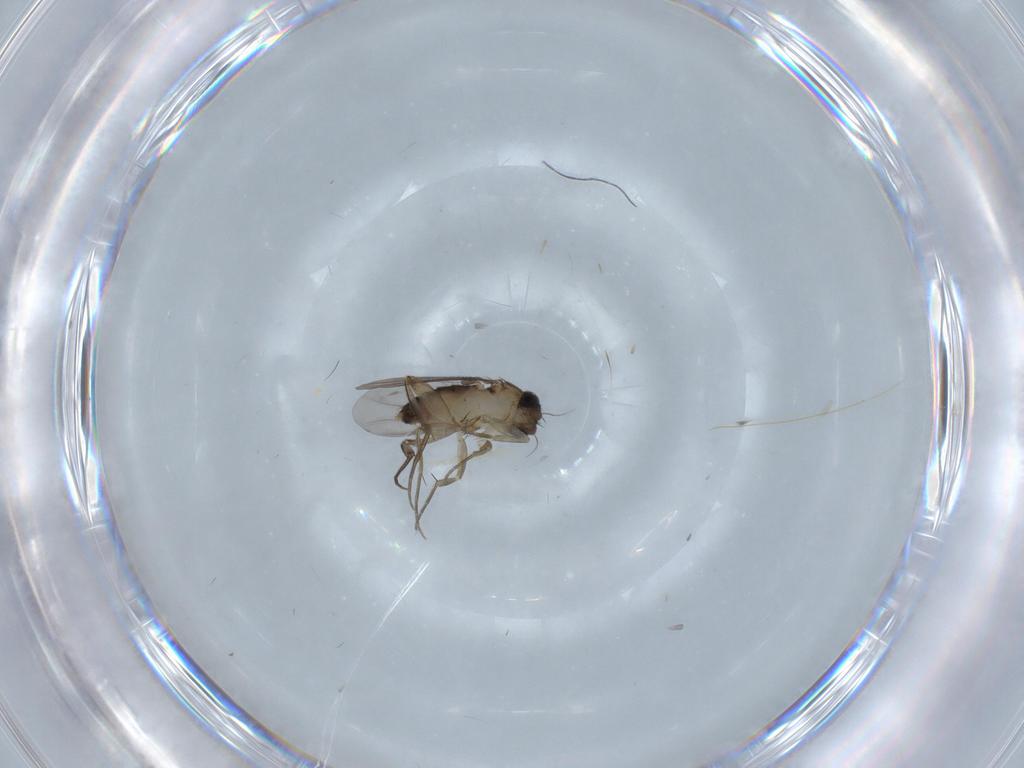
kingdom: Animalia
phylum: Arthropoda
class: Insecta
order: Diptera
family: Phoridae
